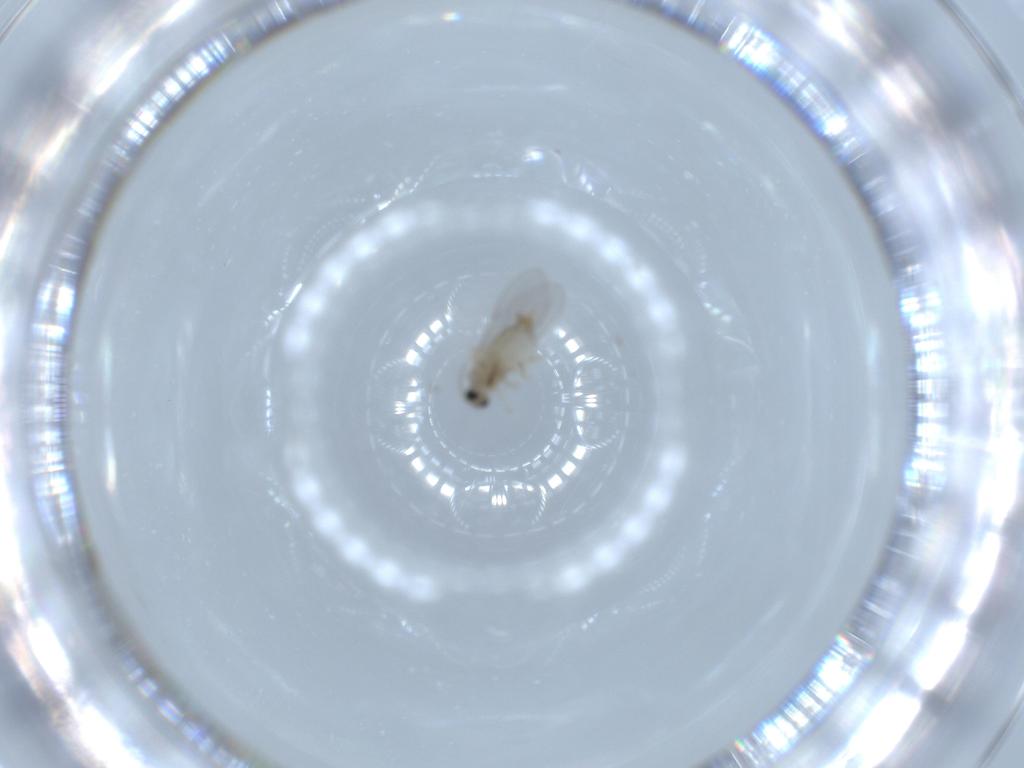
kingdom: Animalia
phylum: Arthropoda
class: Insecta
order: Diptera
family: Cecidomyiidae
